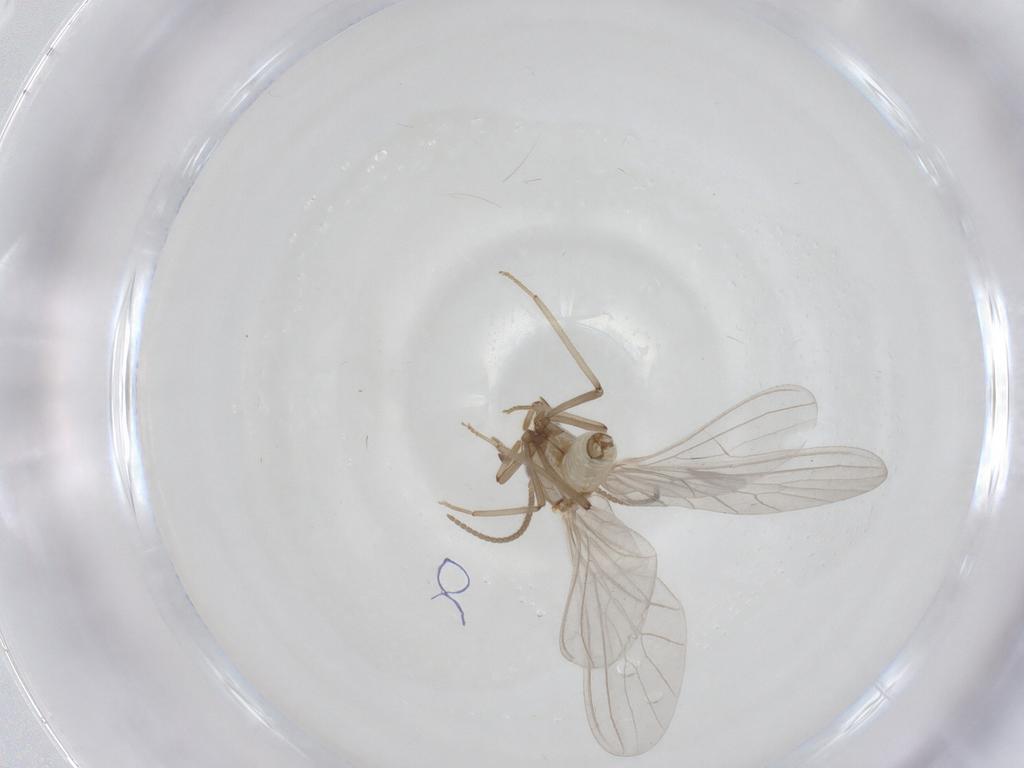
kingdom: Animalia
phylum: Arthropoda
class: Insecta
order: Neuroptera
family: Coniopterygidae
